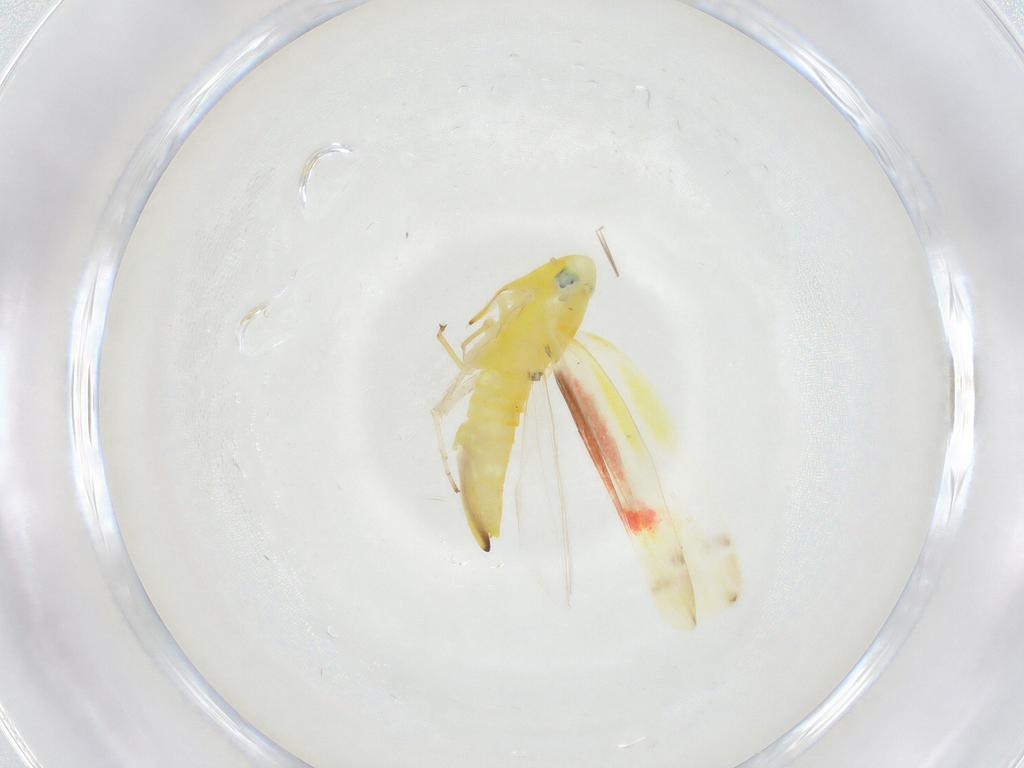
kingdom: Animalia
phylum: Arthropoda
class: Insecta
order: Hemiptera
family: Cicadellidae
